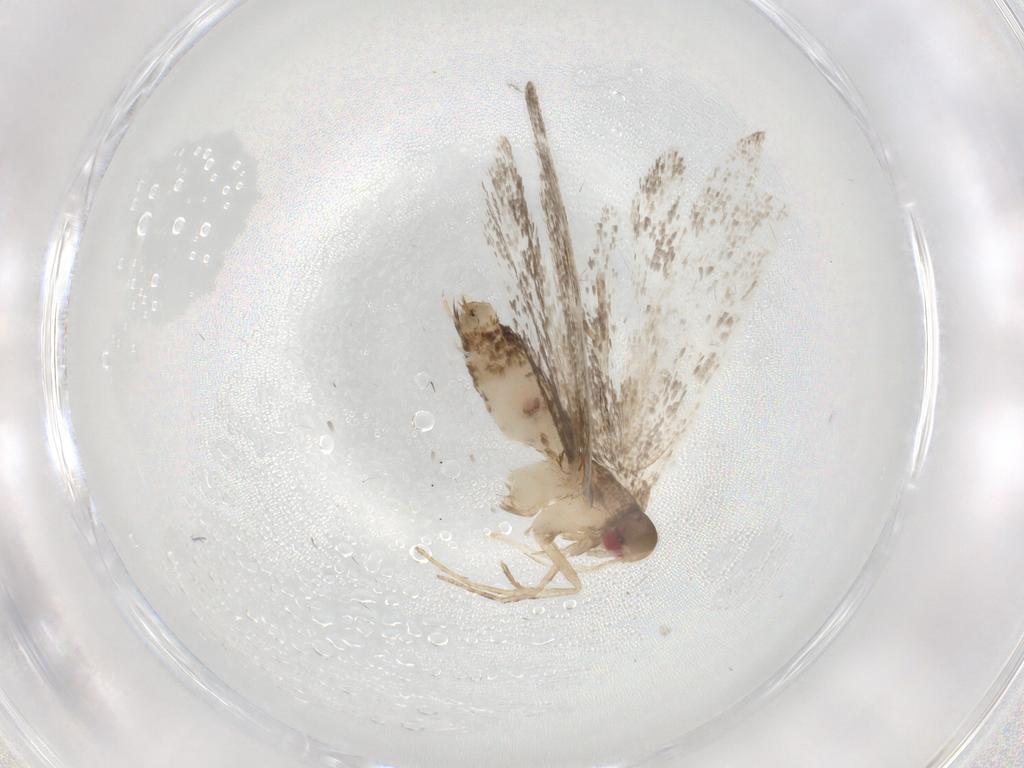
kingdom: Animalia
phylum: Arthropoda
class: Insecta
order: Lepidoptera
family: Gelechiidae
